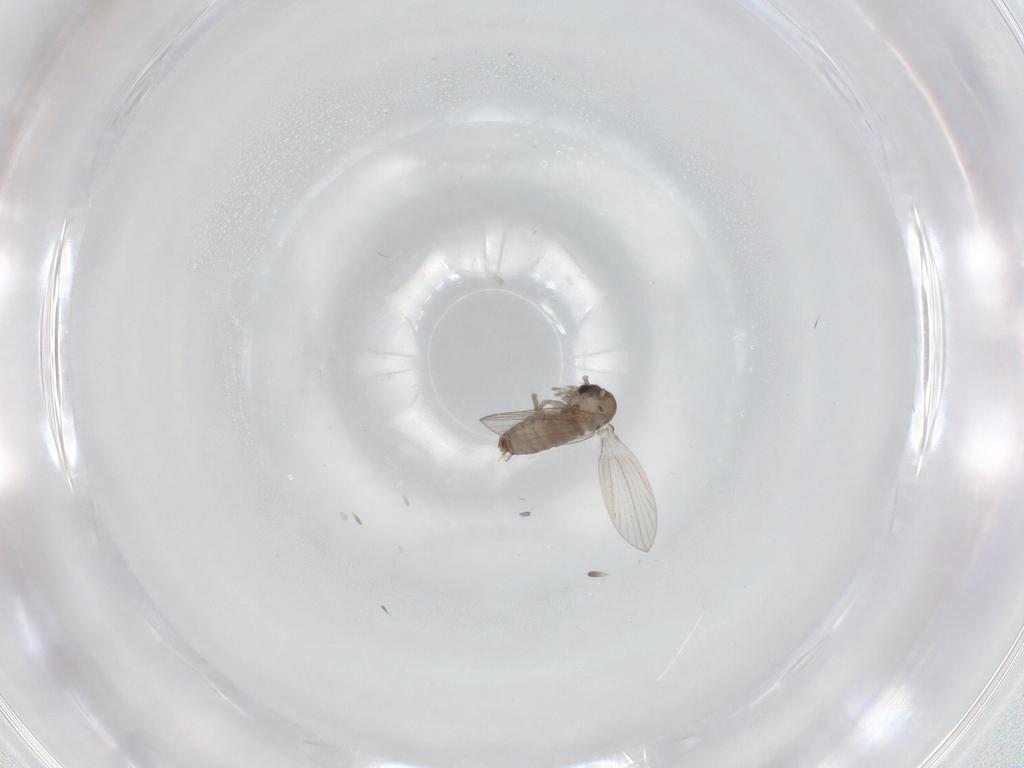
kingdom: Animalia
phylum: Arthropoda
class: Insecta
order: Diptera
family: Psychodidae
